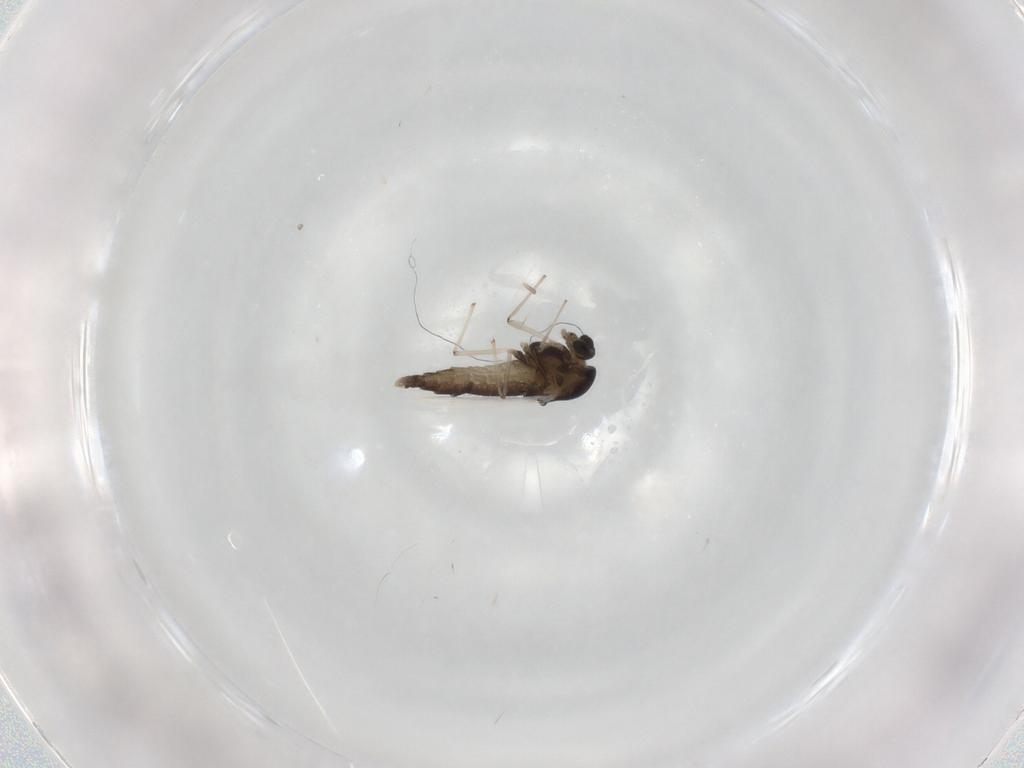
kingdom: Animalia
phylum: Arthropoda
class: Insecta
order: Diptera
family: Chironomidae
